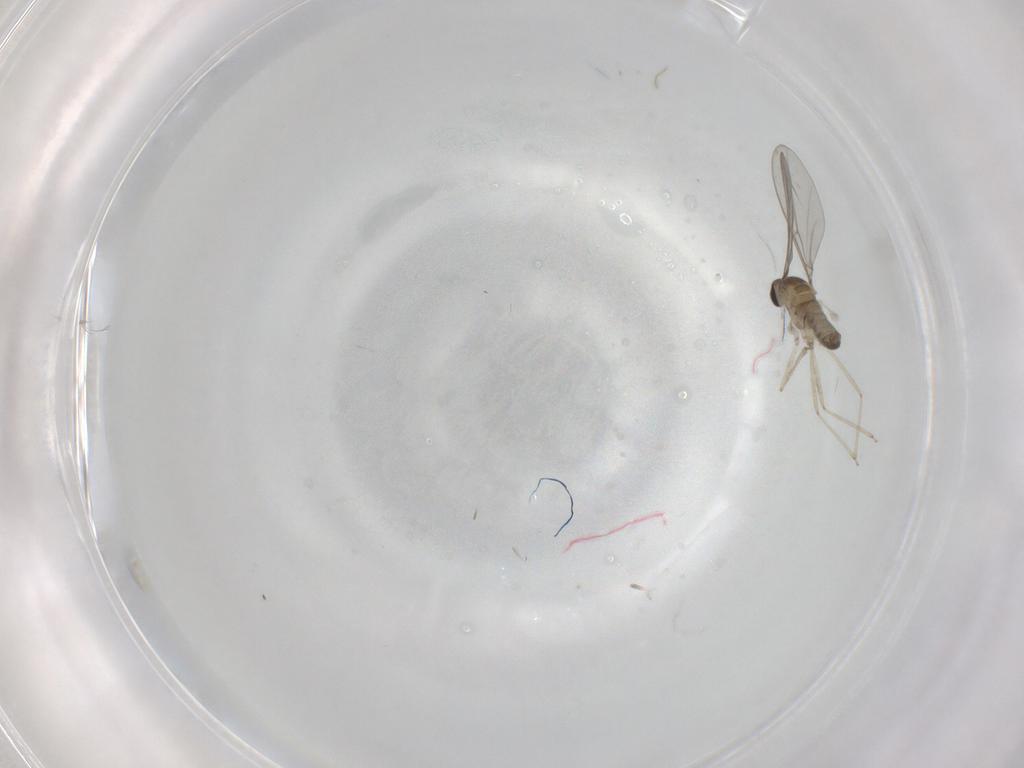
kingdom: Animalia
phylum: Arthropoda
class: Insecta
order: Diptera
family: Cecidomyiidae
